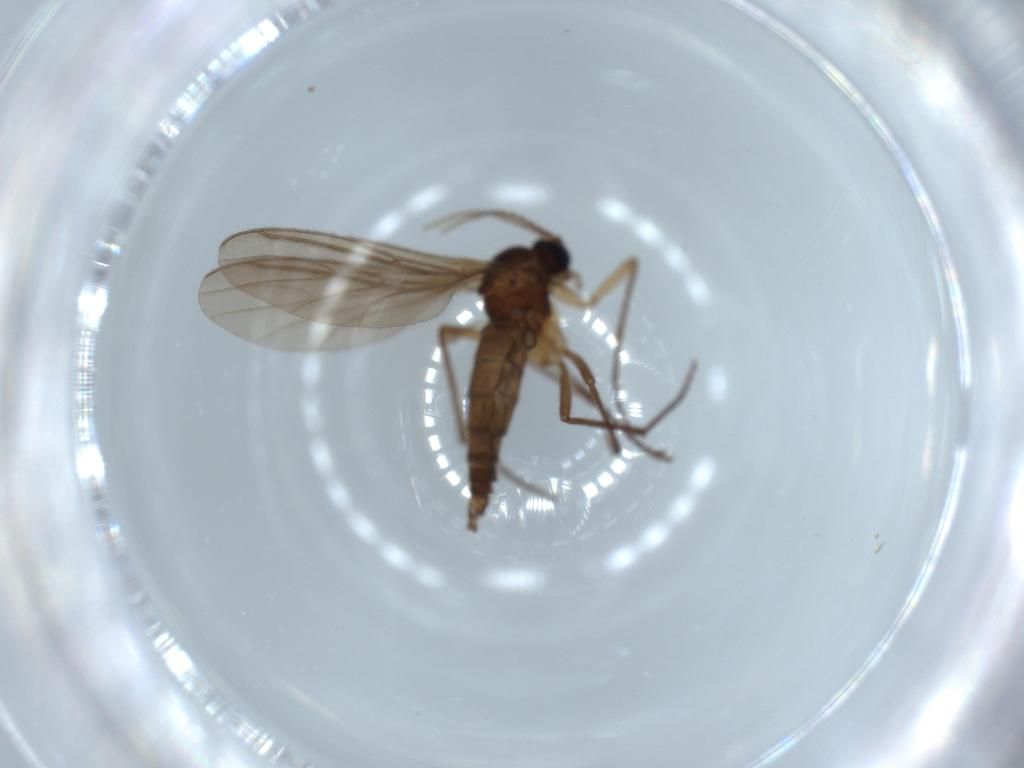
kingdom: Animalia
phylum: Arthropoda
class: Insecta
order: Diptera
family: Sciaridae
